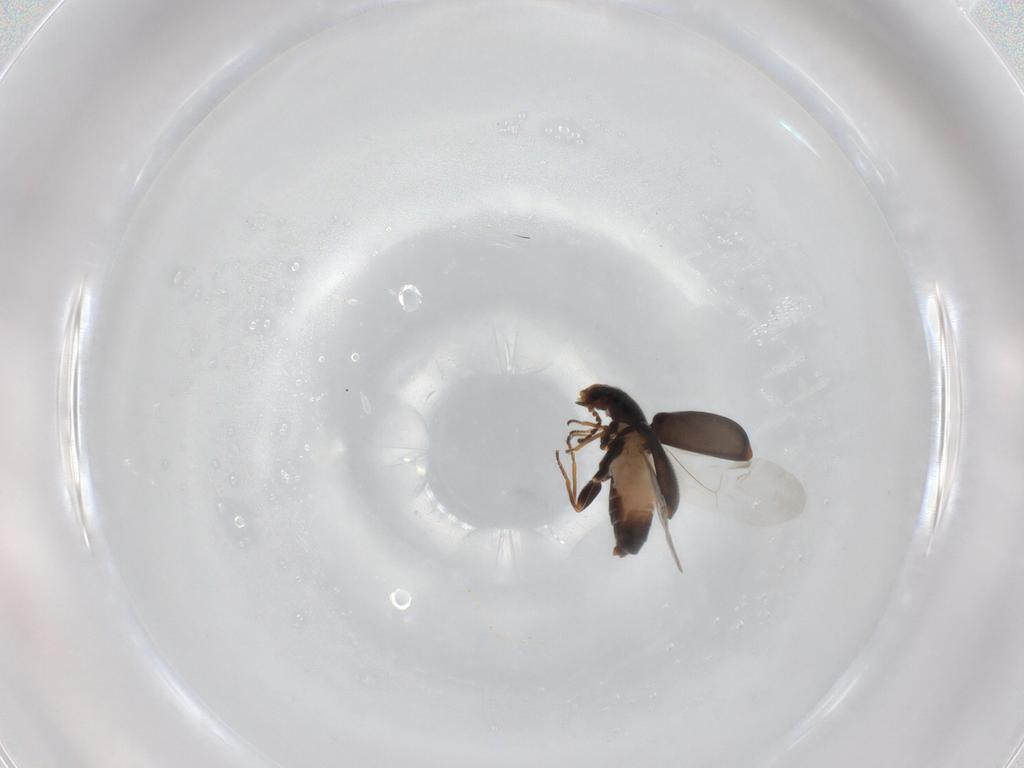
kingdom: Animalia
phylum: Arthropoda
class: Insecta
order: Coleoptera
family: Melyridae
